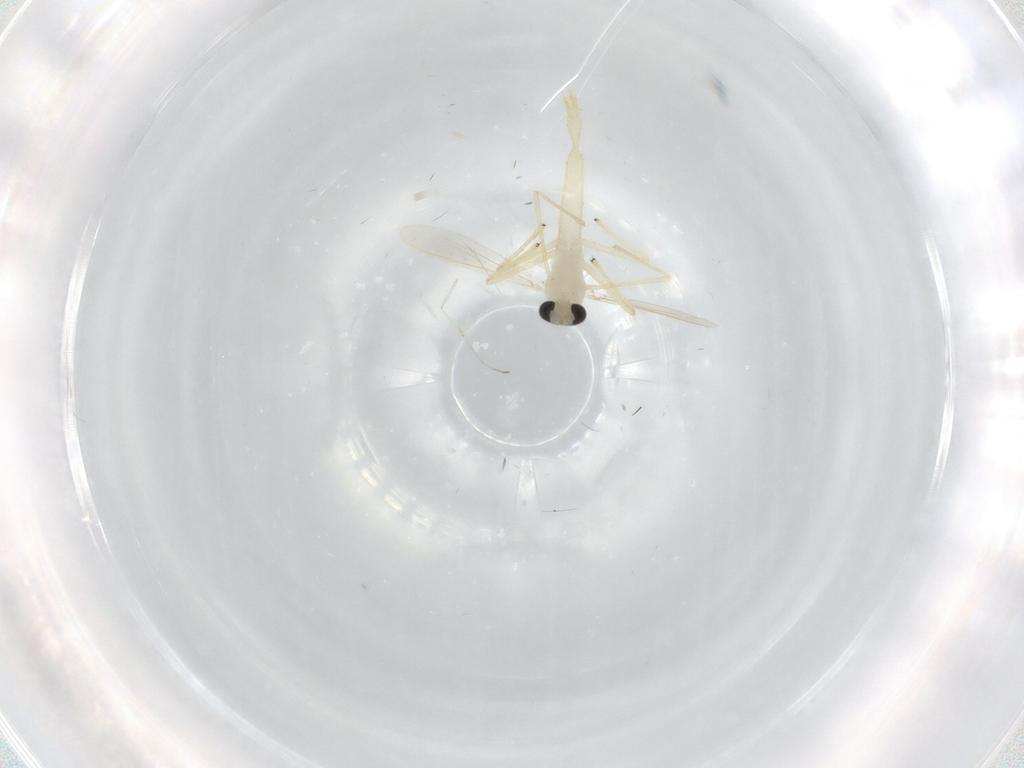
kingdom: Animalia
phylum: Arthropoda
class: Insecta
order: Diptera
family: Chironomidae
